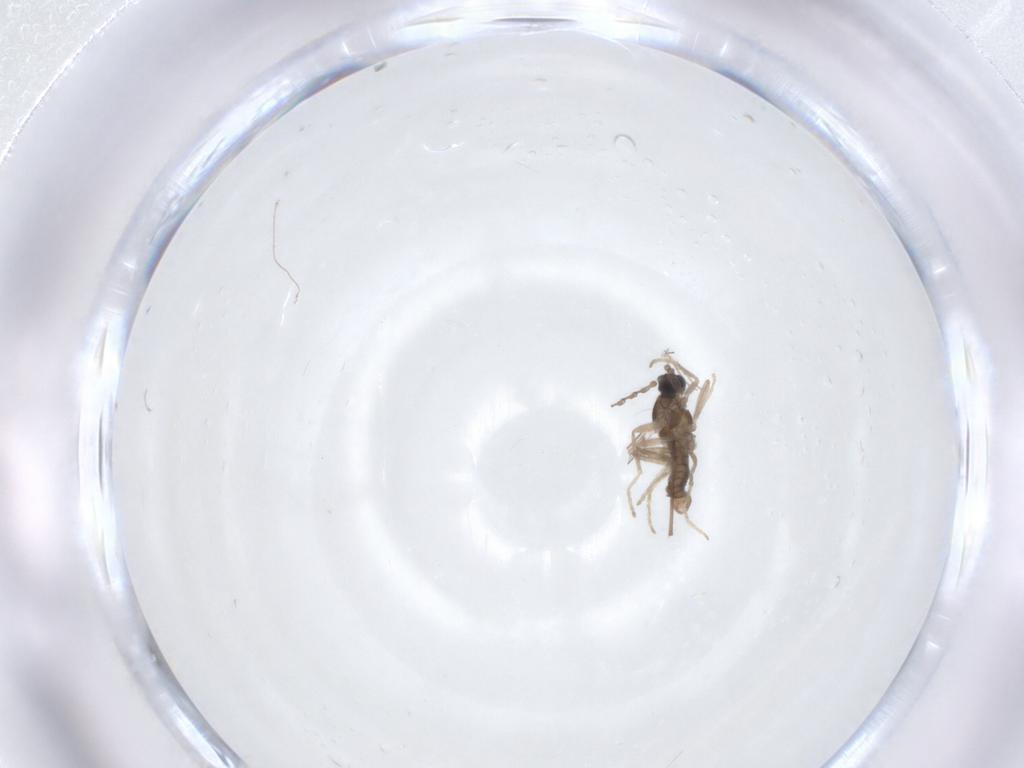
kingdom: Animalia
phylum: Arthropoda
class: Insecta
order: Diptera
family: Cecidomyiidae
